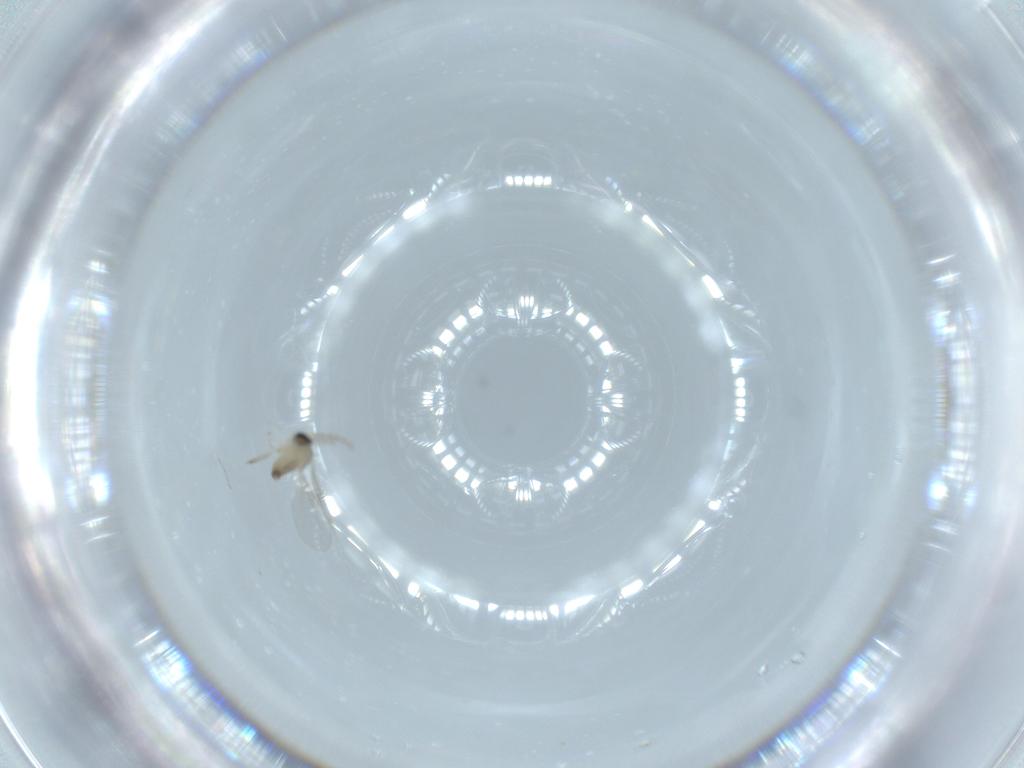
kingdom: Animalia
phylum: Arthropoda
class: Insecta
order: Diptera
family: Cecidomyiidae
